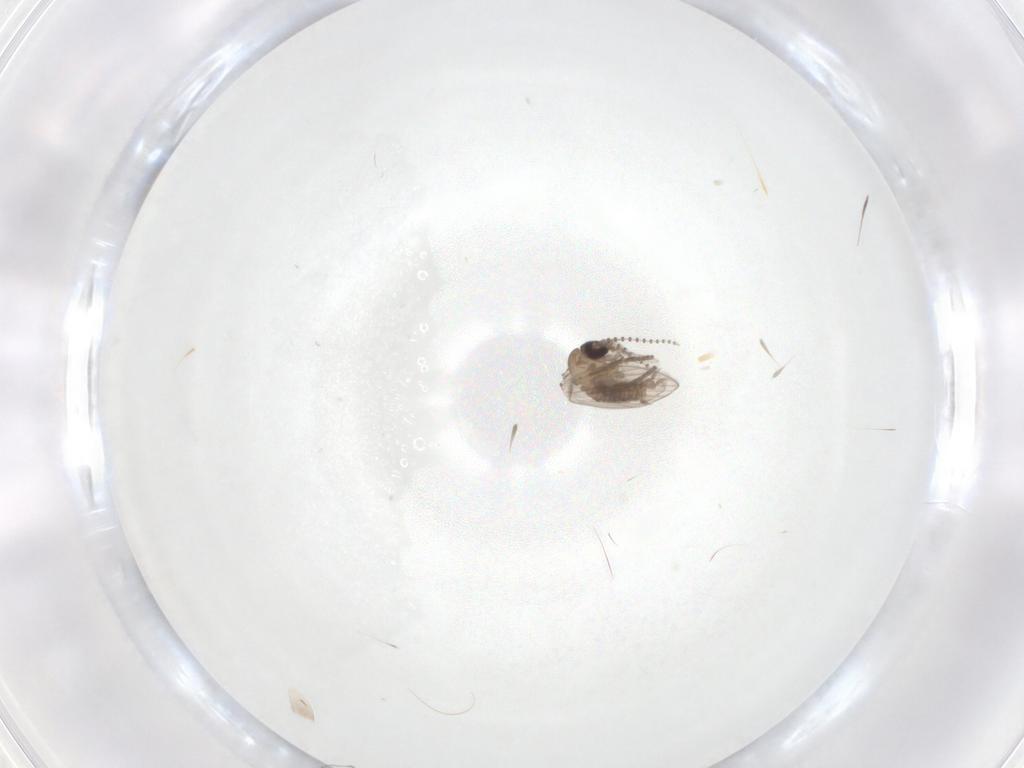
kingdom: Animalia
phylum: Arthropoda
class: Insecta
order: Diptera
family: Psychodidae
